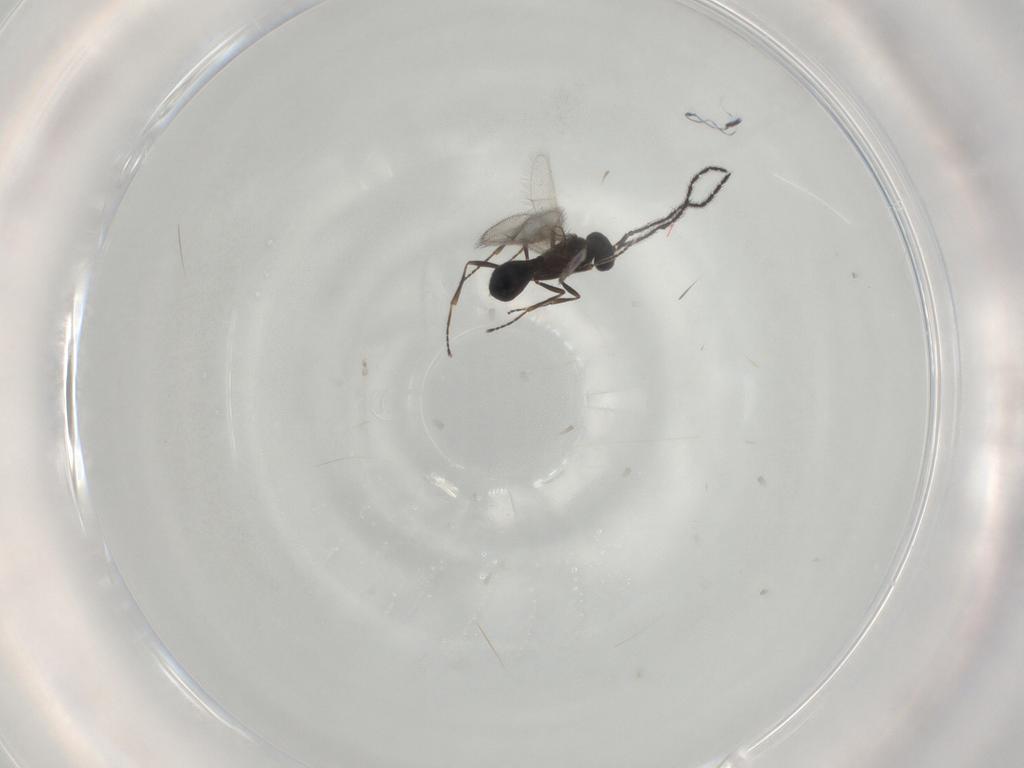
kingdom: Animalia
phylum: Arthropoda
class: Insecta
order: Hymenoptera
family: Scelionidae
